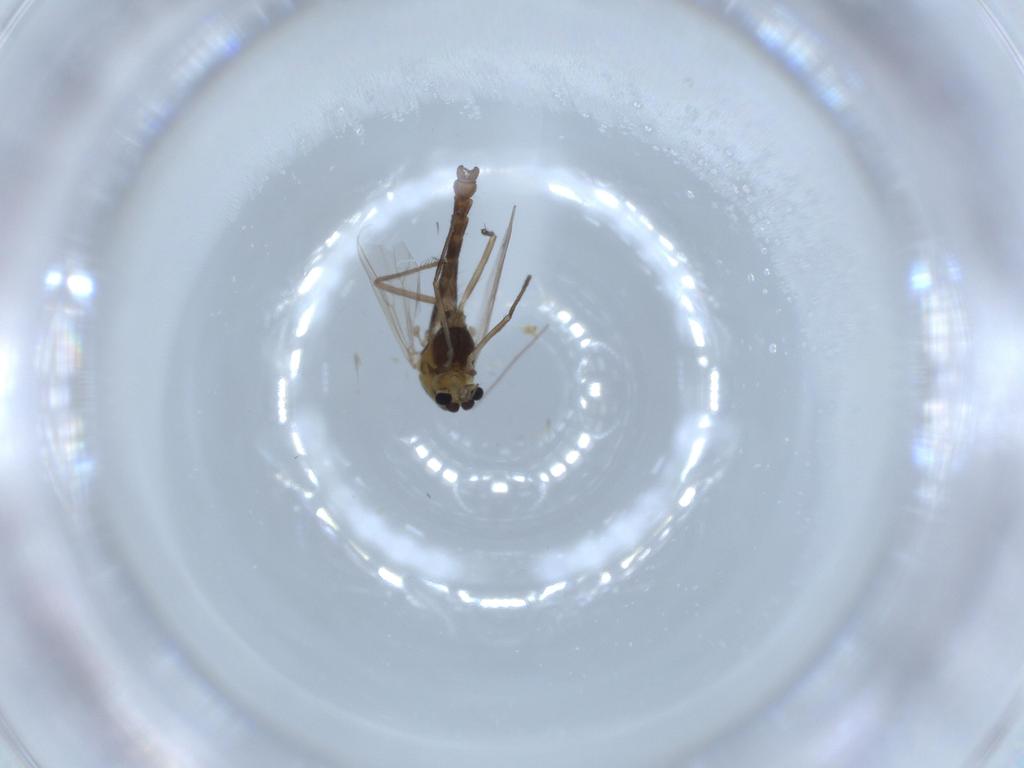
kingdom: Animalia
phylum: Arthropoda
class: Insecta
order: Diptera
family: Chironomidae
